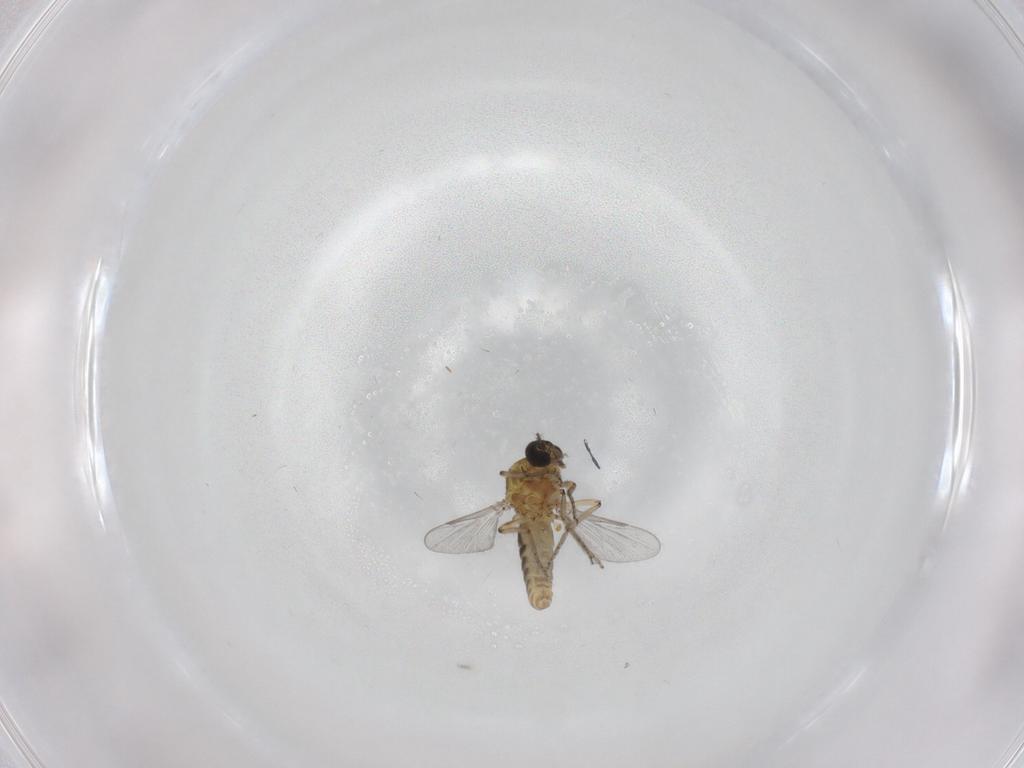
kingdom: Animalia
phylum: Arthropoda
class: Insecta
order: Diptera
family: Ceratopogonidae
